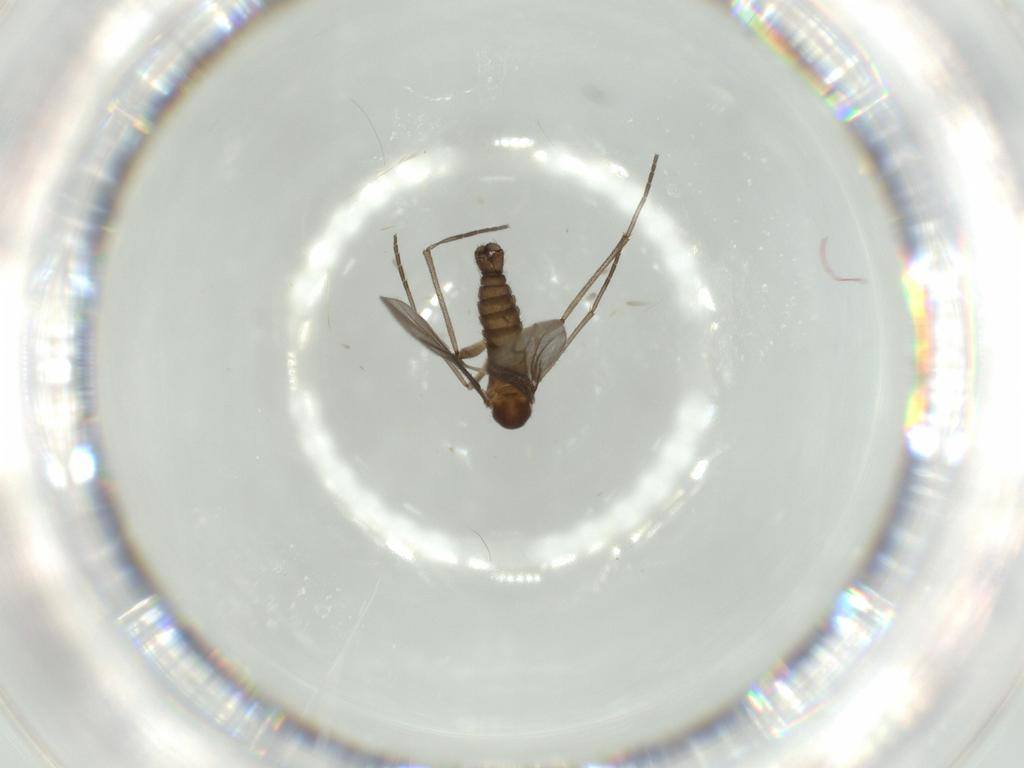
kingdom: Animalia
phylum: Arthropoda
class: Insecta
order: Diptera
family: Sciaridae
